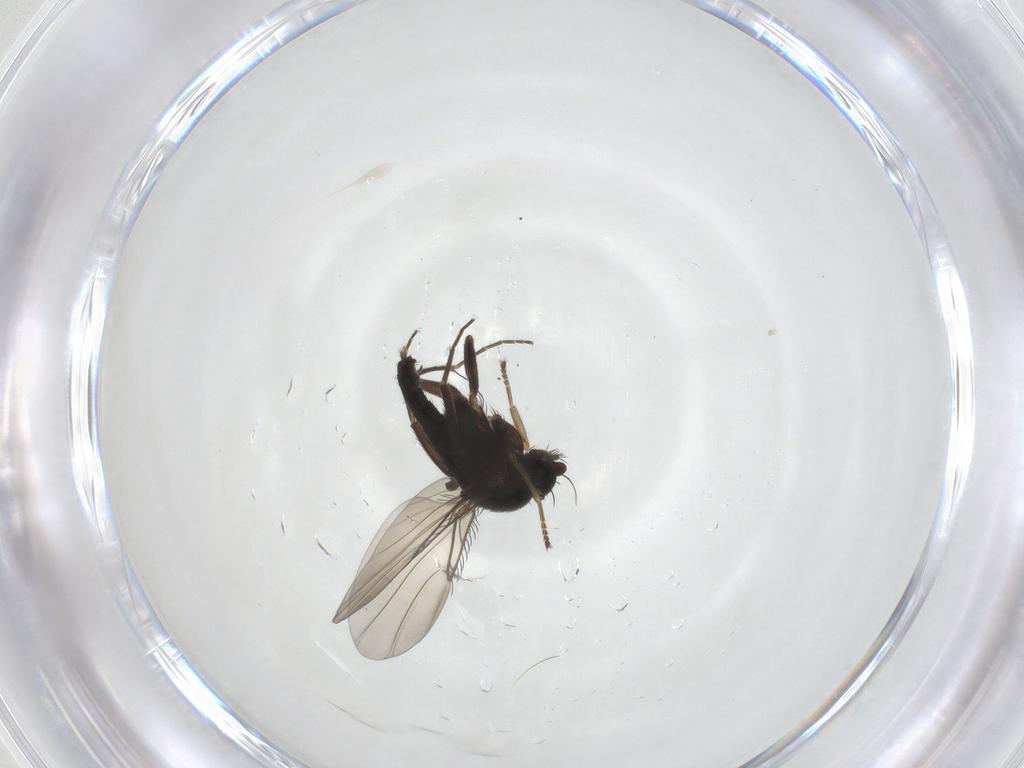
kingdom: Animalia
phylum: Arthropoda
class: Insecta
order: Diptera
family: Phoridae
